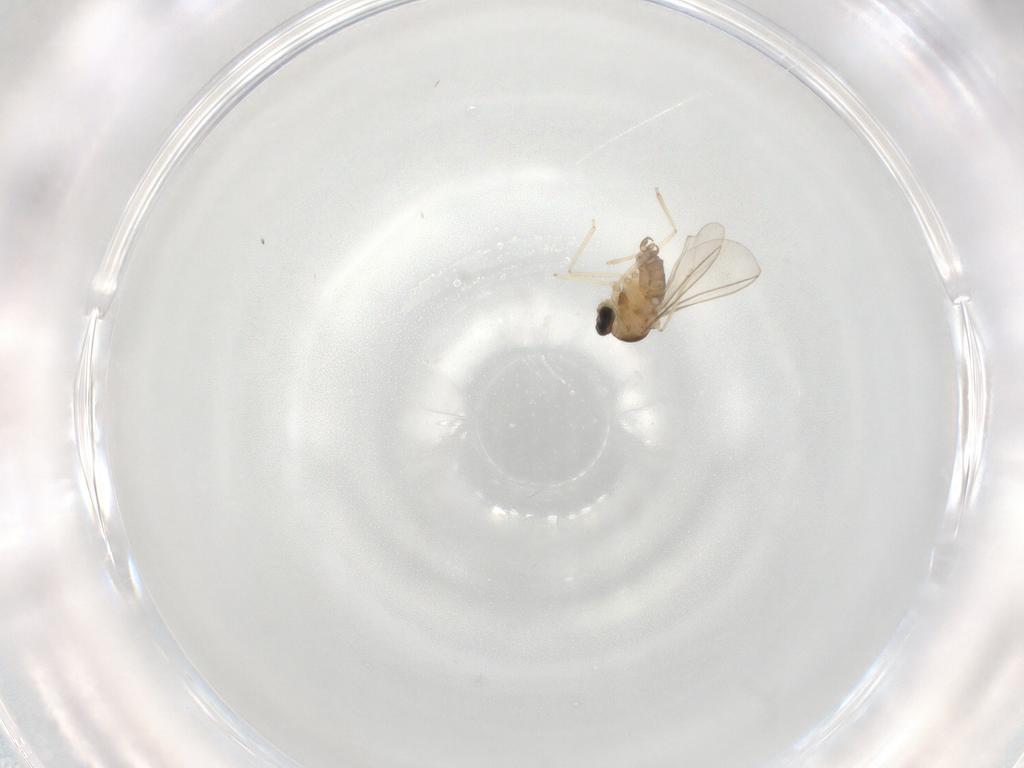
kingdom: Animalia
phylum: Arthropoda
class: Insecta
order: Diptera
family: Cecidomyiidae
